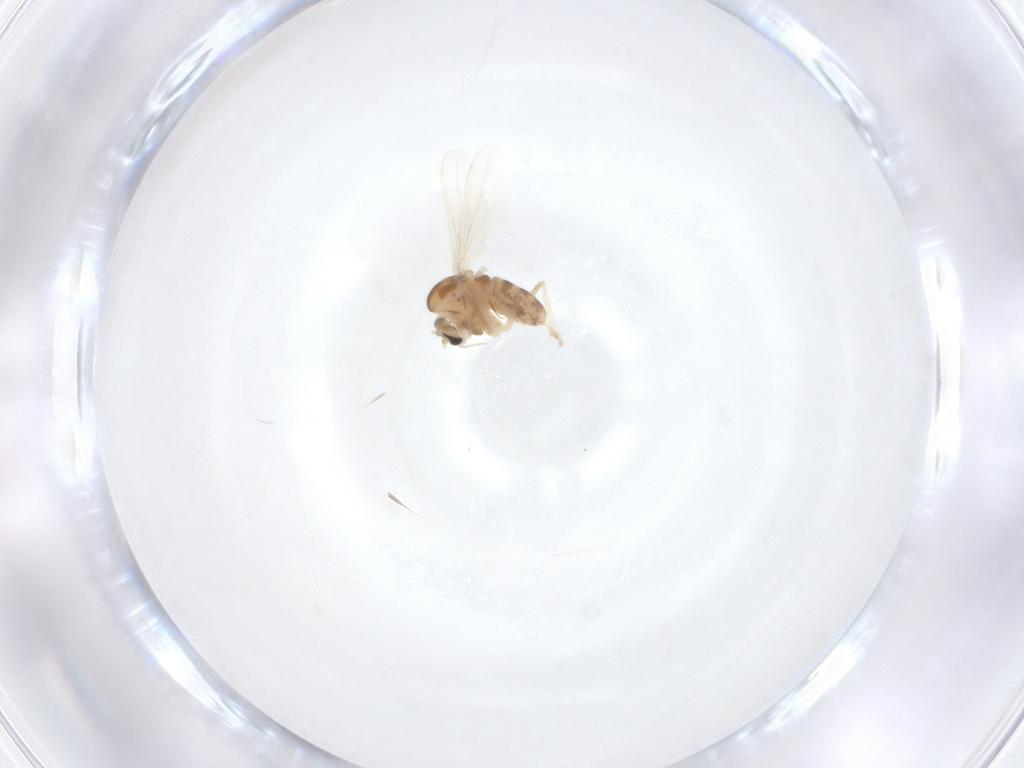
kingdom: Animalia
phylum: Arthropoda
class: Insecta
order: Diptera
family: Chironomidae
